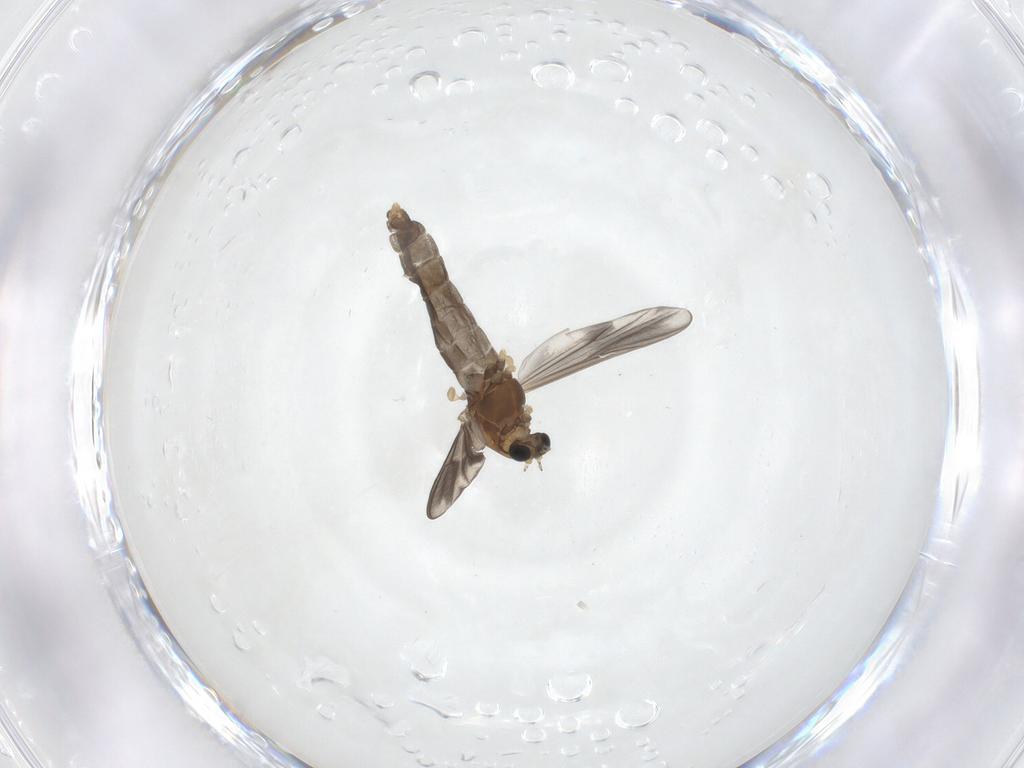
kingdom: Animalia
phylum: Arthropoda
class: Insecta
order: Diptera
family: Chironomidae
